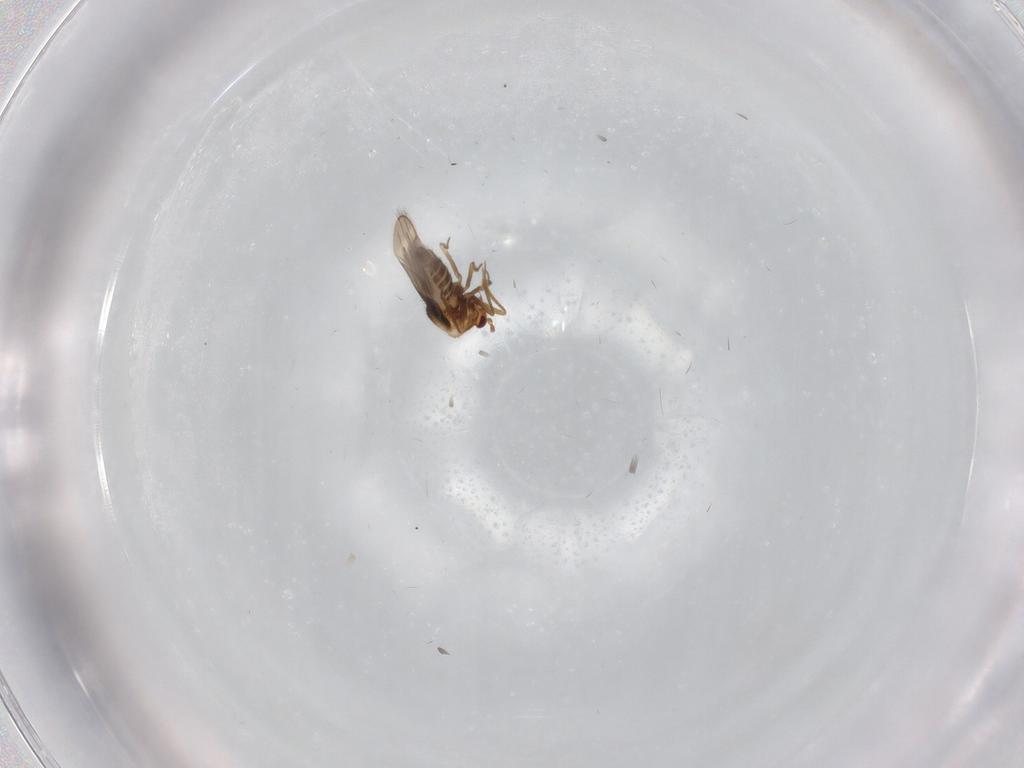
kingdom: Animalia
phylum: Arthropoda
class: Insecta
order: Hemiptera
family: Schizopteridae
